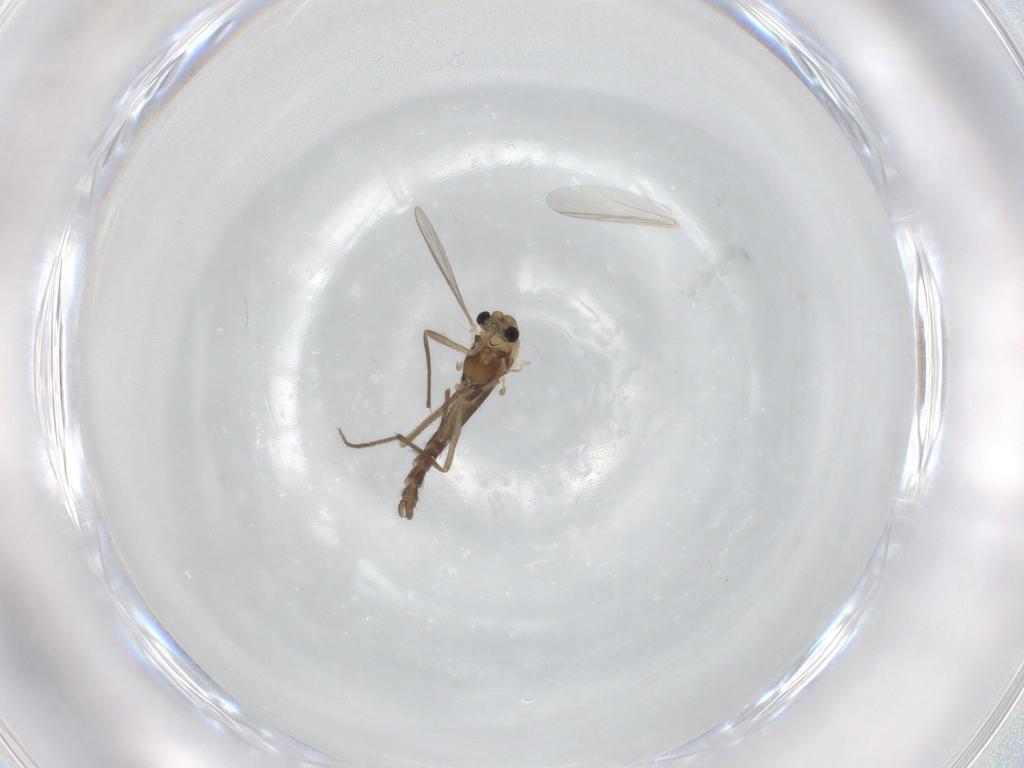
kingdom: Animalia
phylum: Arthropoda
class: Insecta
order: Diptera
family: Chironomidae
